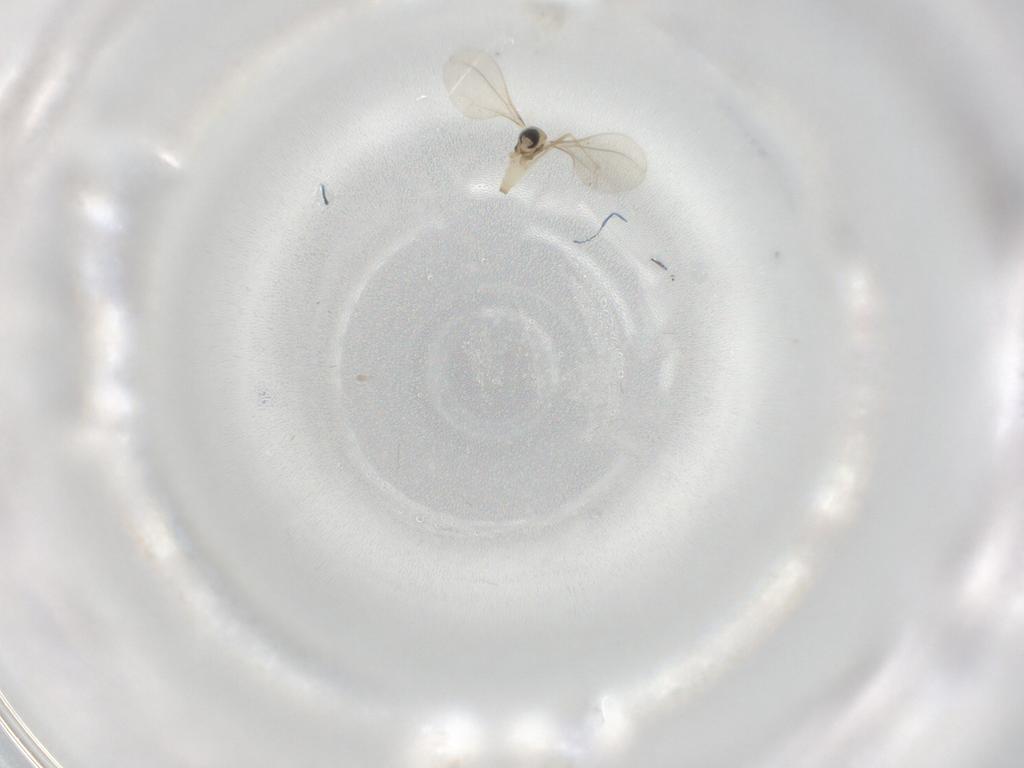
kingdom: Animalia
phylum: Arthropoda
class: Insecta
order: Diptera
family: Cecidomyiidae
